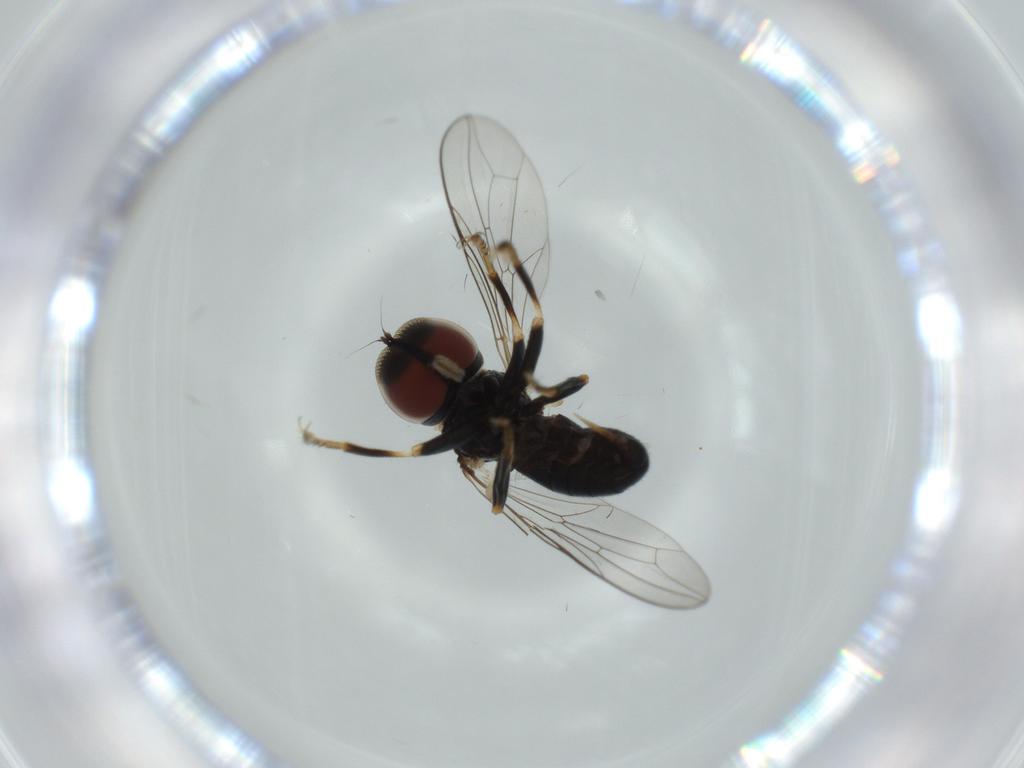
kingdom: Animalia
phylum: Arthropoda
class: Insecta
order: Diptera
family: Pipunculidae
